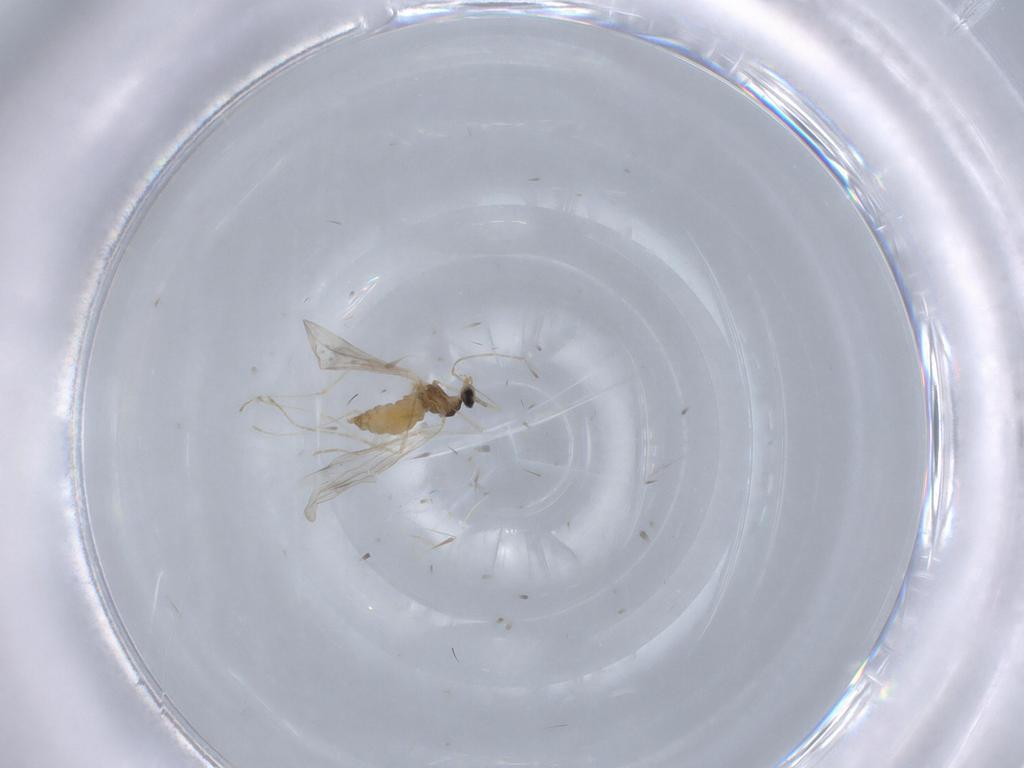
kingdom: Animalia
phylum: Arthropoda
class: Insecta
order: Diptera
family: Cecidomyiidae
